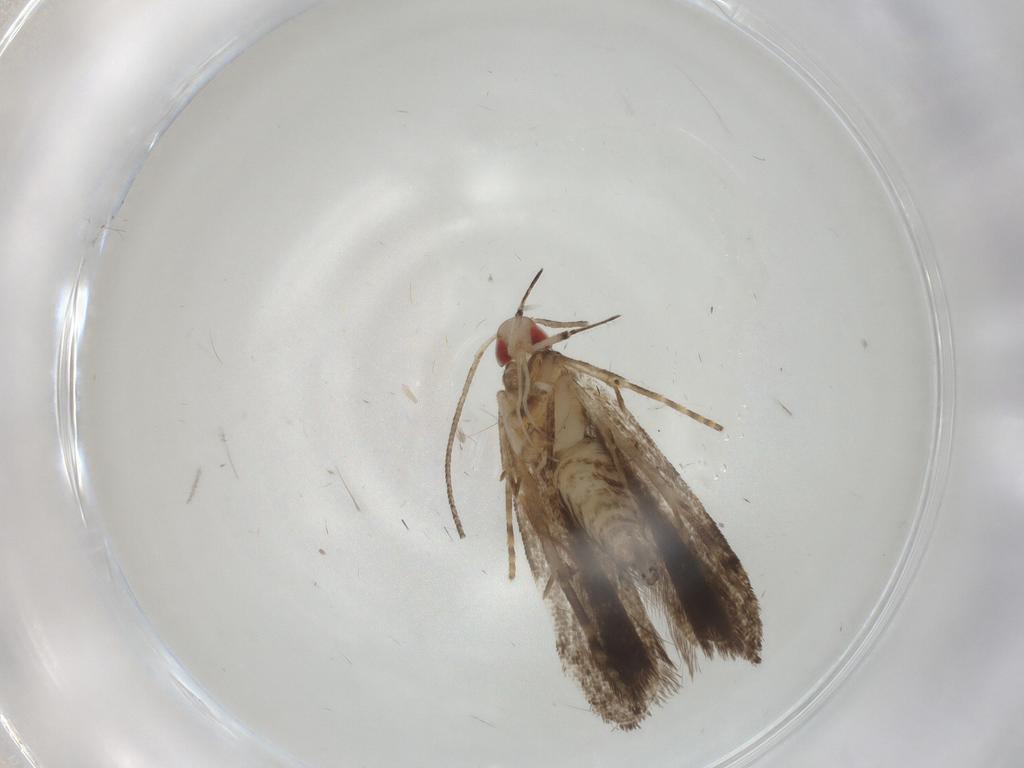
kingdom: Animalia
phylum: Arthropoda
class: Insecta
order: Lepidoptera
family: Gelechiidae
